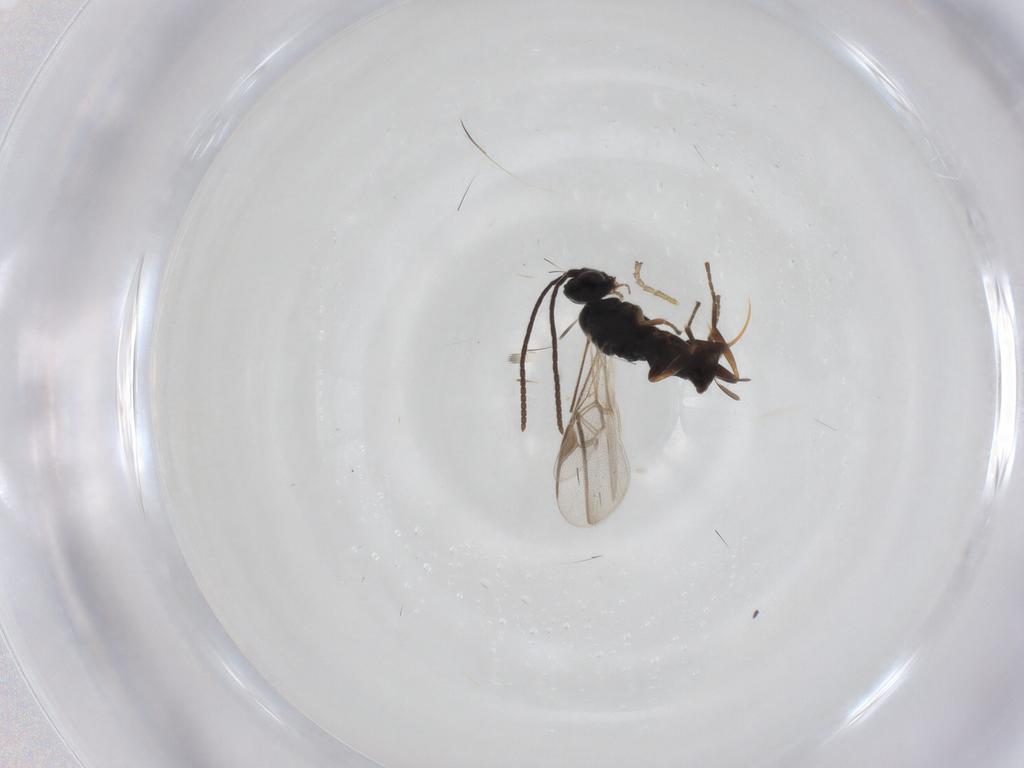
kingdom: Animalia
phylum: Arthropoda
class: Insecta
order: Hymenoptera
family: Braconidae
